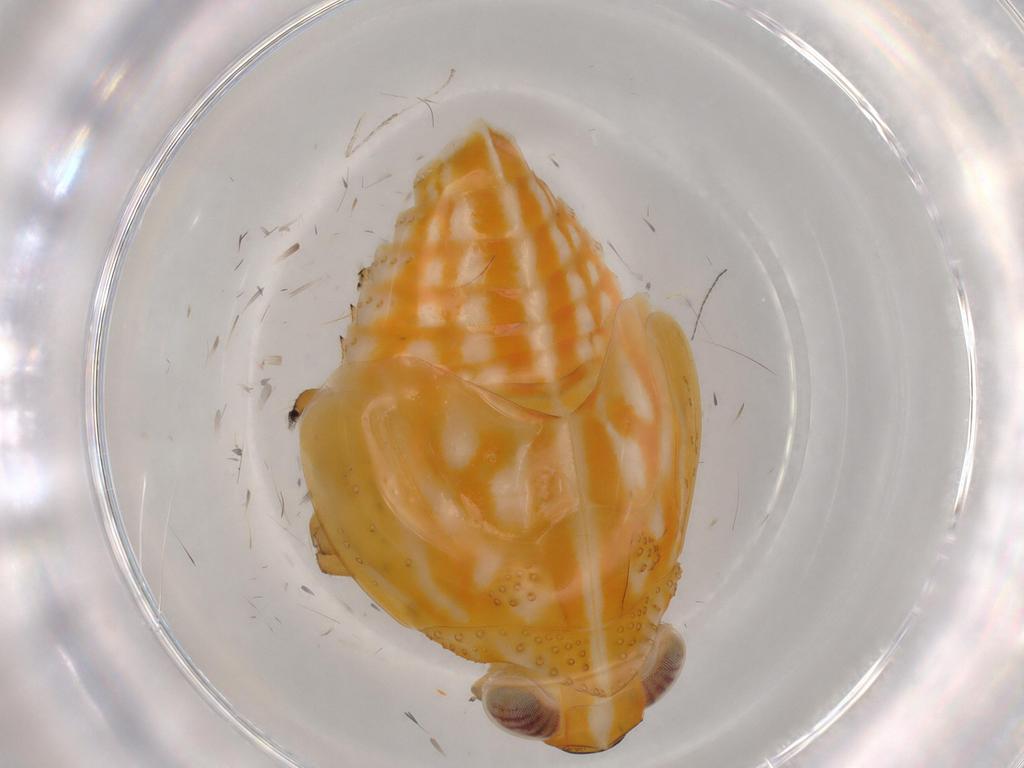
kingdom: Animalia
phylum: Arthropoda
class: Insecta
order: Hemiptera
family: Issidae
